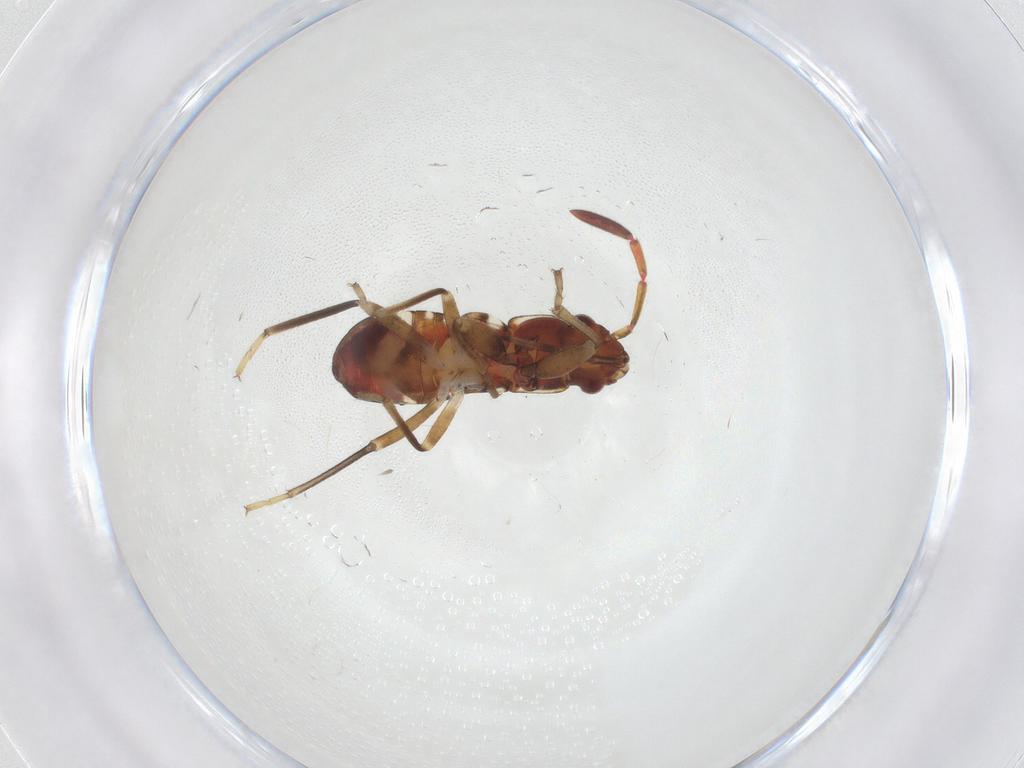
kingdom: Animalia
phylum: Arthropoda
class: Insecta
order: Hemiptera
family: Rhyparochromidae
